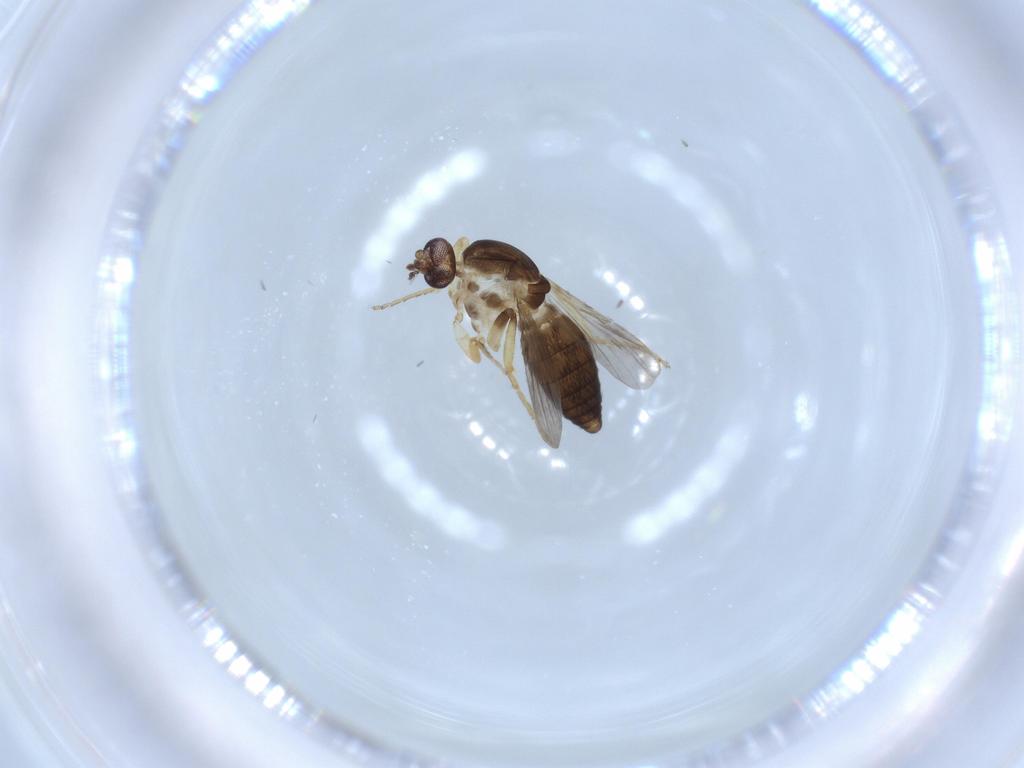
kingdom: Animalia
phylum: Arthropoda
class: Insecta
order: Diptera
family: Ceratopogonidae
